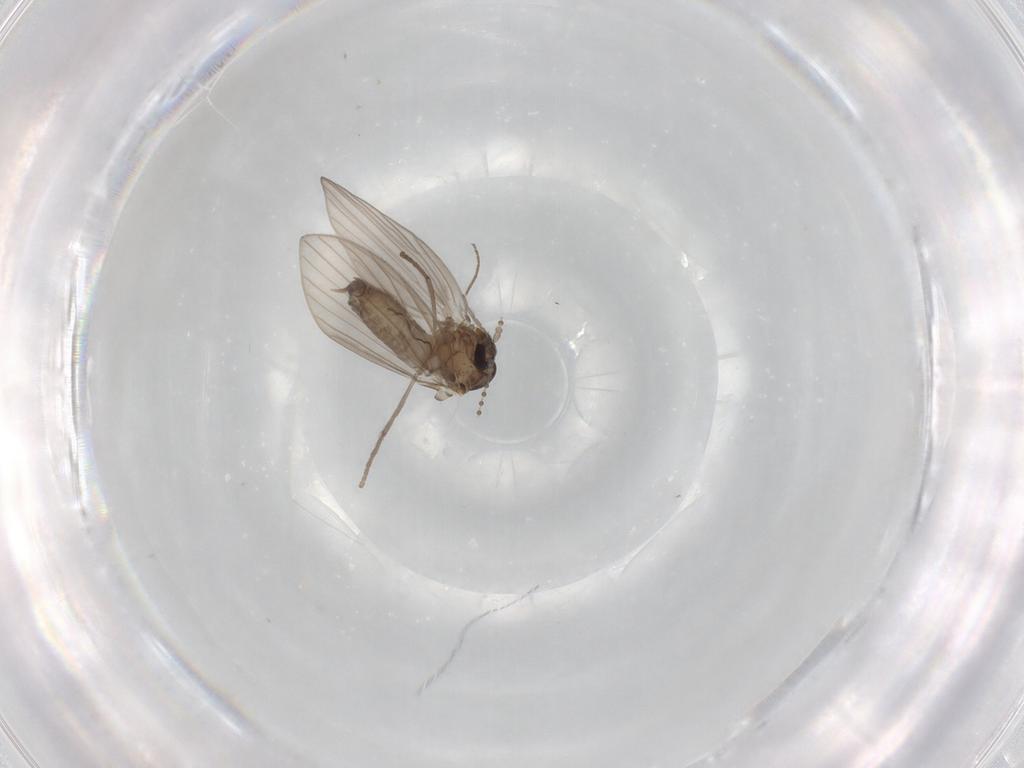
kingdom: Animalia
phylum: Arthropoda
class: Insecta
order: Diptera
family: Psychodidae
